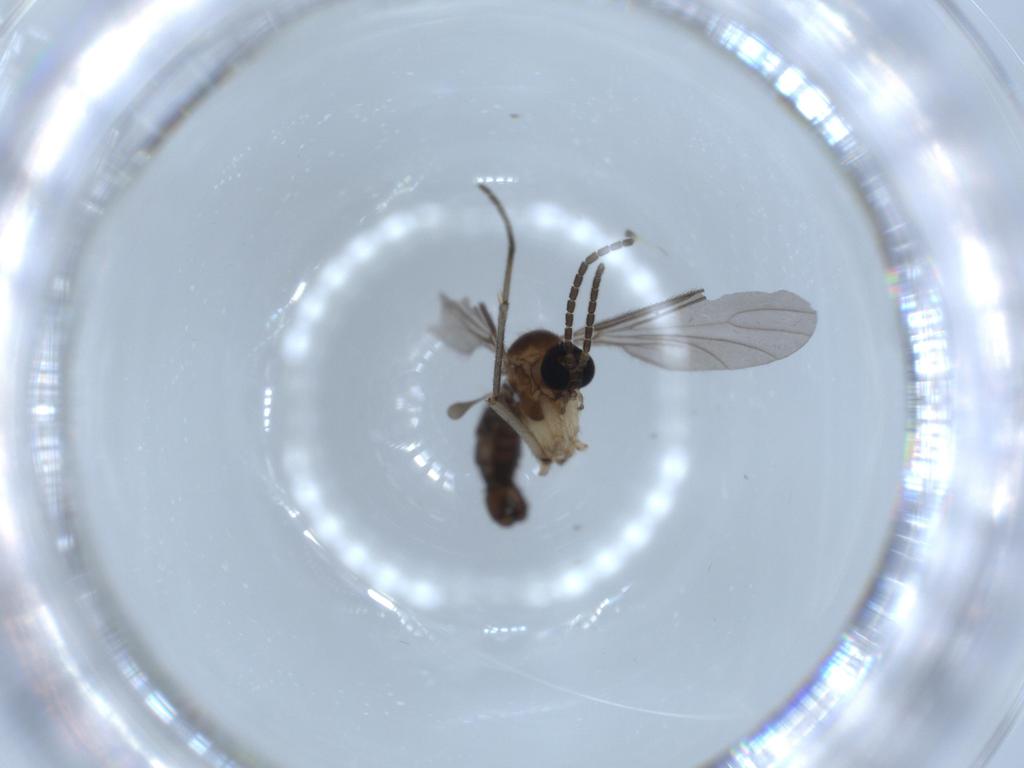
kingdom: Animalia
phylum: Arthropoda
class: Insecta
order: Diptera
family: Sciaridae
